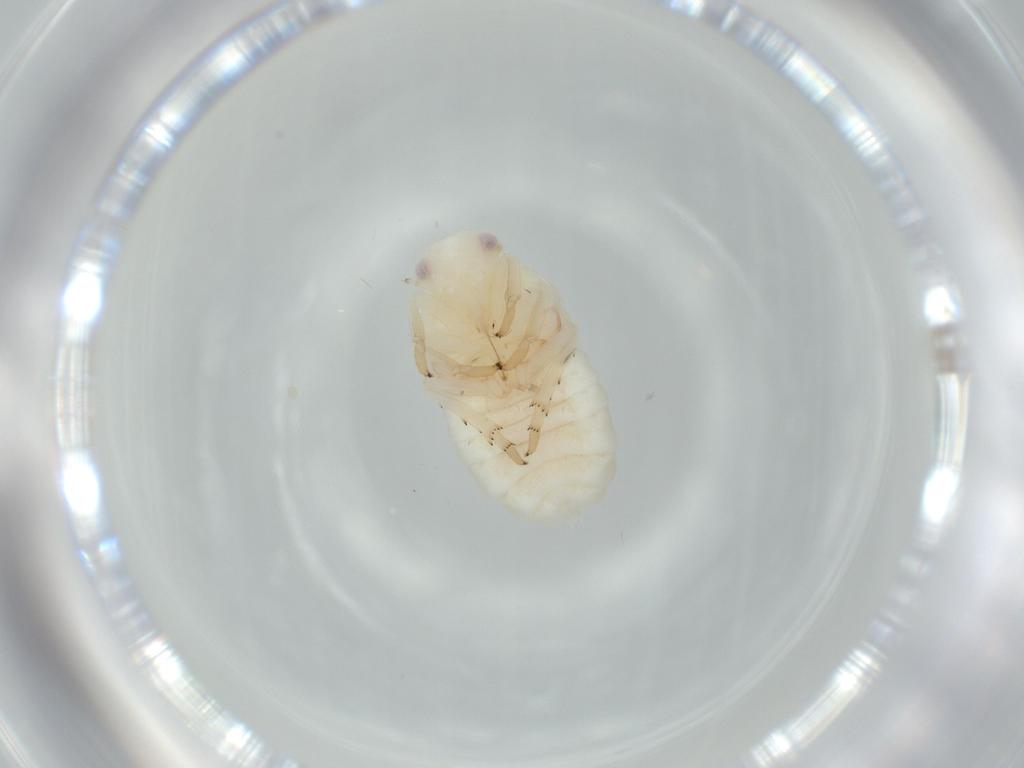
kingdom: Animalia
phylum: Arthropoda
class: Insecta
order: Hemiptera
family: Flatidae
